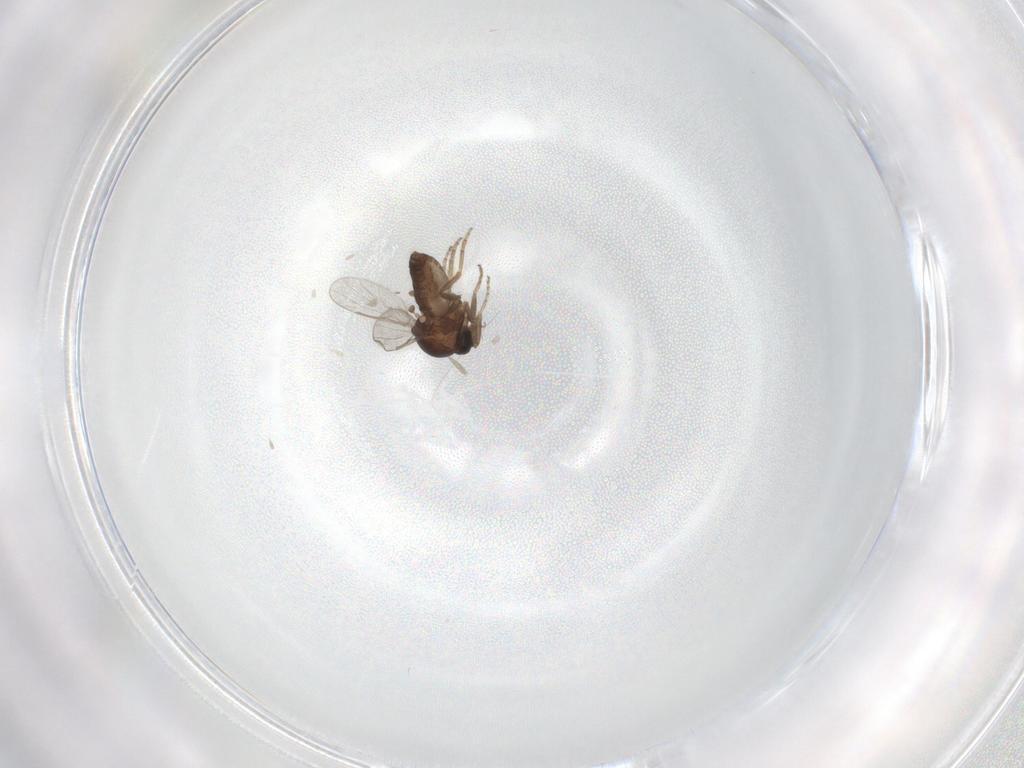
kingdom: Animalia
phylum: Arthropoda
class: Insecta
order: Diptera
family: Ceratopogonidae
